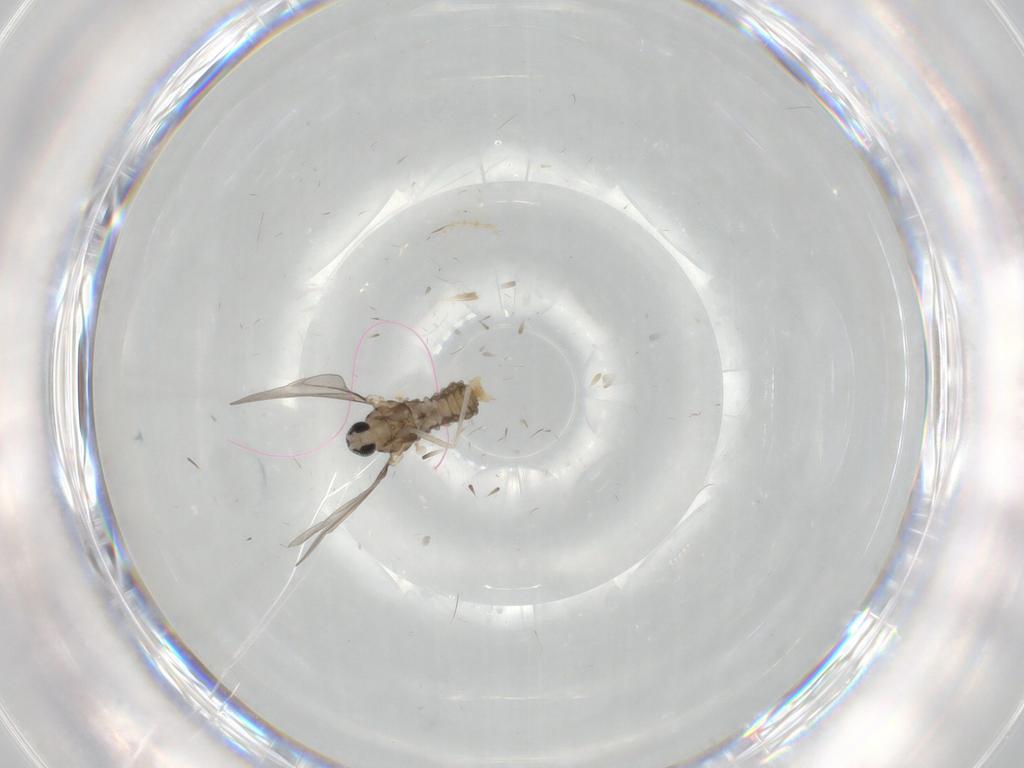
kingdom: Animalia
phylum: Arthropoda
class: Insecta
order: Diptera
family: Cecidomyiidae
